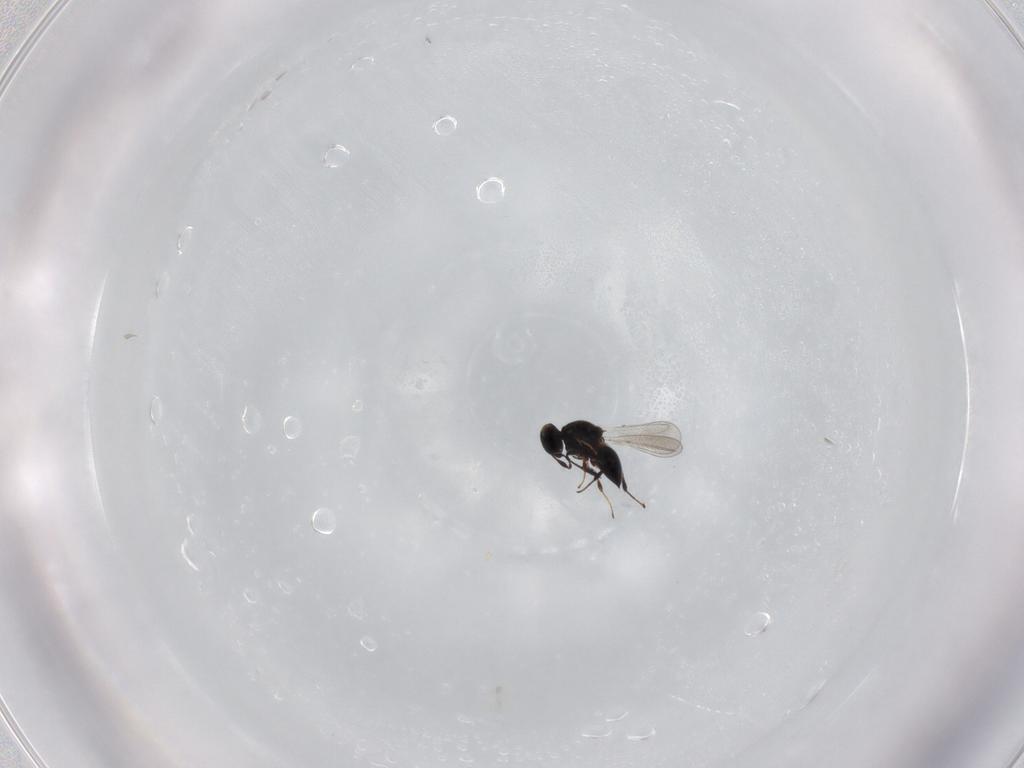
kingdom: Animalia
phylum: Arthropoda
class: Insecta
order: Hymenoptera
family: Platygastridae
